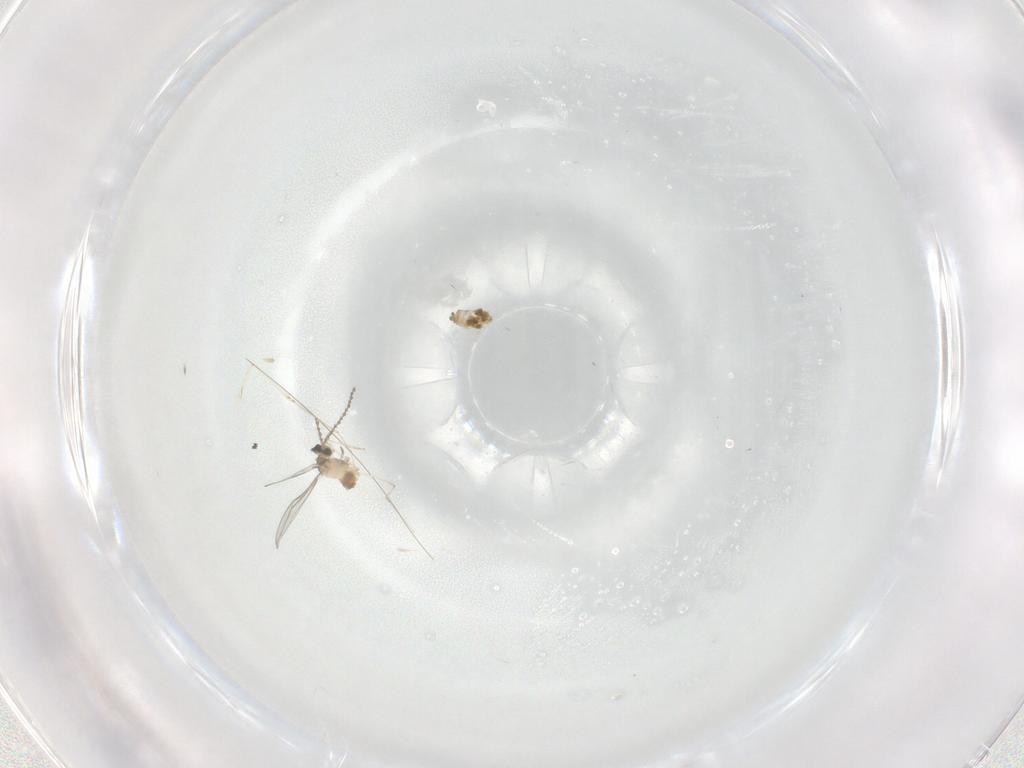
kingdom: Animalia
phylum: Arthropoda
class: Insecta
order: Diptera
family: Cecidomyiidae
